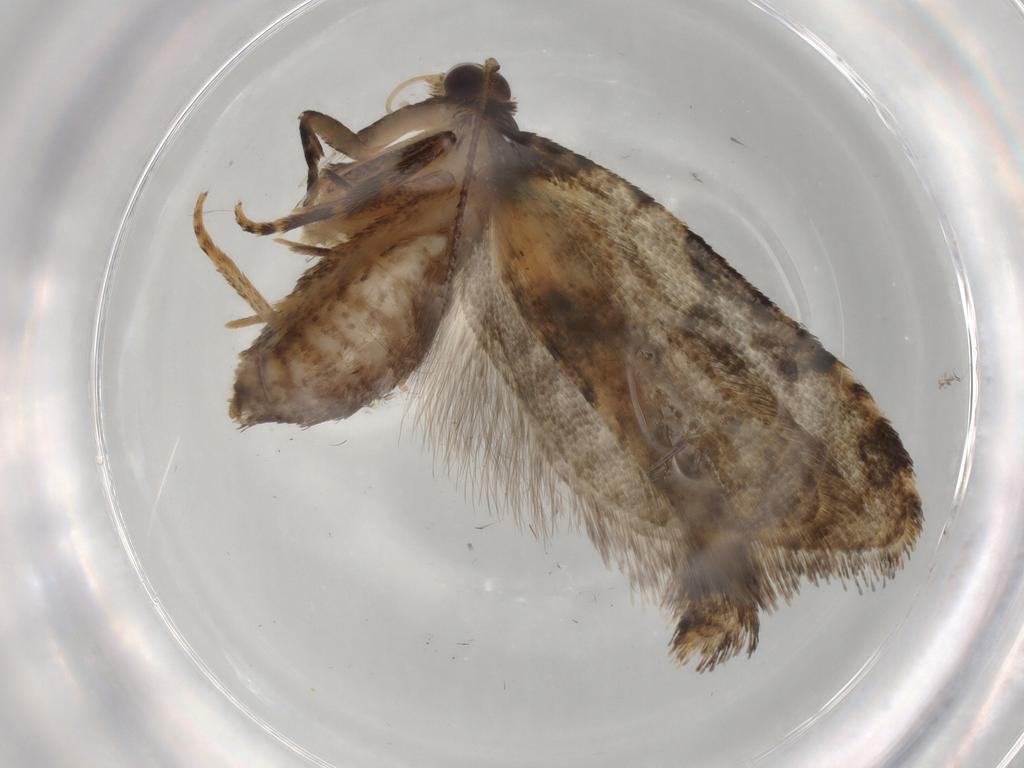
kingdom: Animalia
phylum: Arthropoda
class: Insecta
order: Lepidoptera
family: Tortricidae
